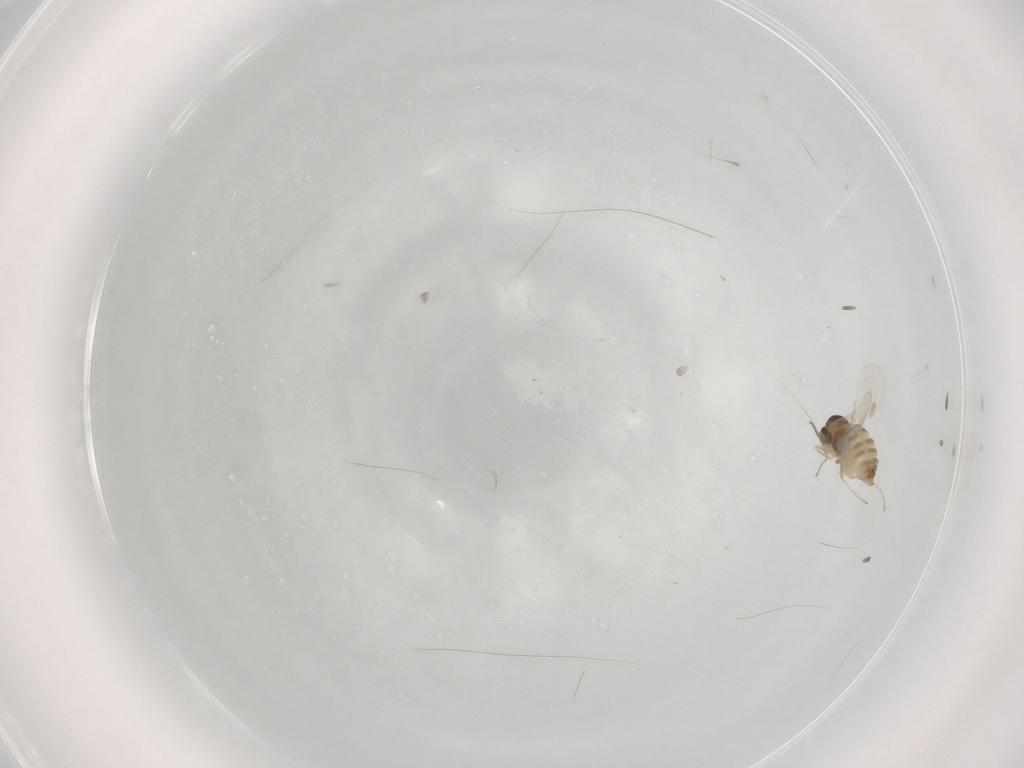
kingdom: Animalia
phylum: Arthropoda
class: Insecta
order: Diptera
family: Cecidomyiidae
